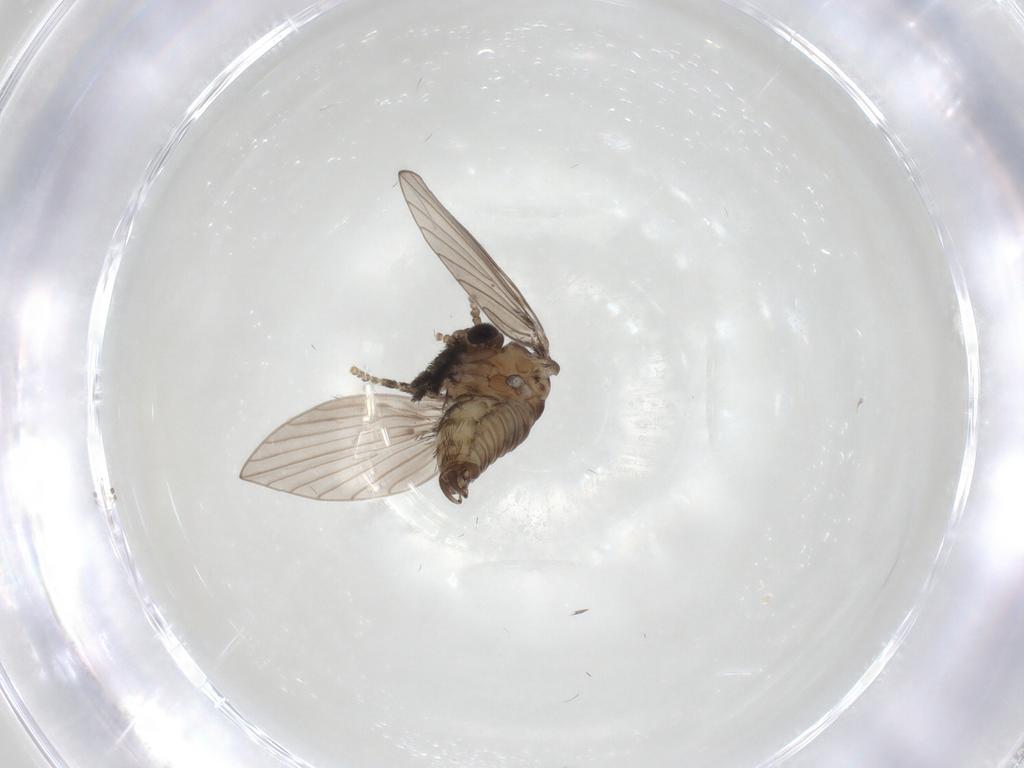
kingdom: Animalia
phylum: Arthropoda
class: Insecta
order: Diptera
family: Psychodidae
